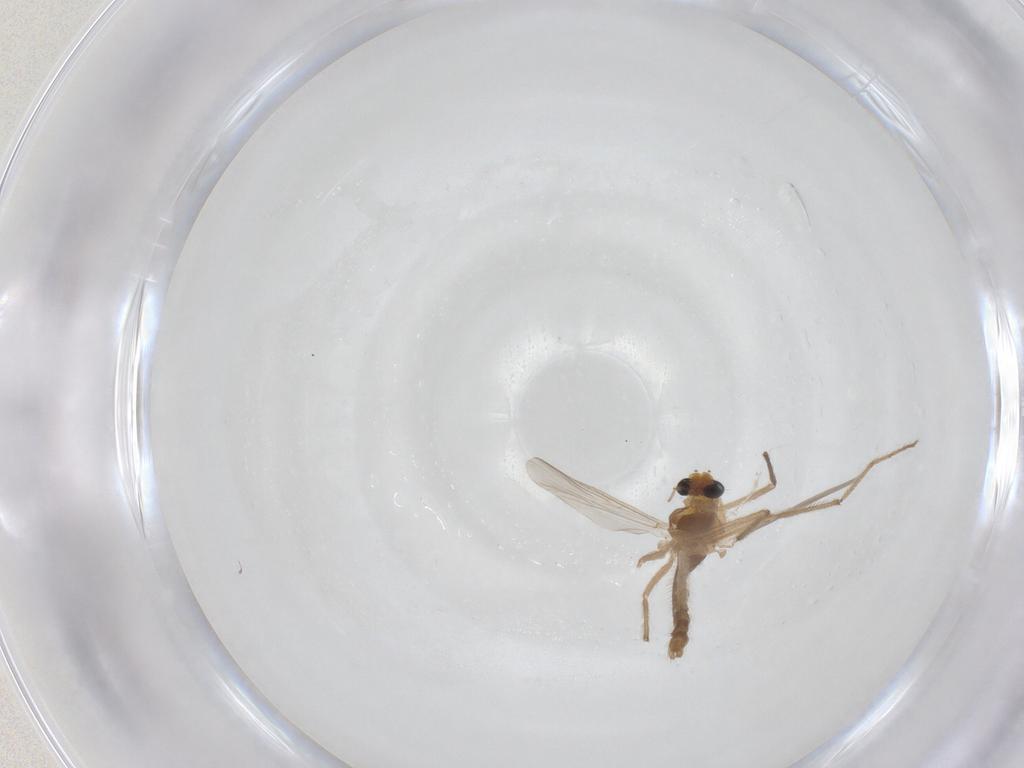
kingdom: Animalia
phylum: Arthropoda
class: Insecta
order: Diptera
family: Chironomidae
